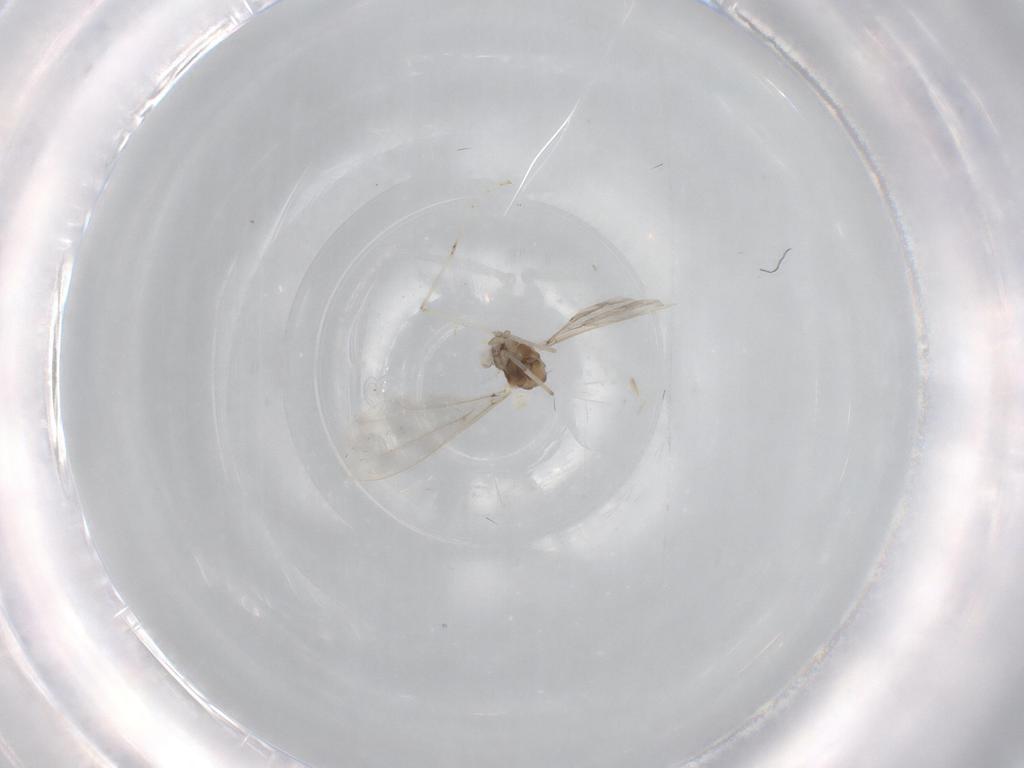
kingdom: Animalia
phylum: Arthropoda
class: Insecta
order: Diptera
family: Cecidomyiidae
